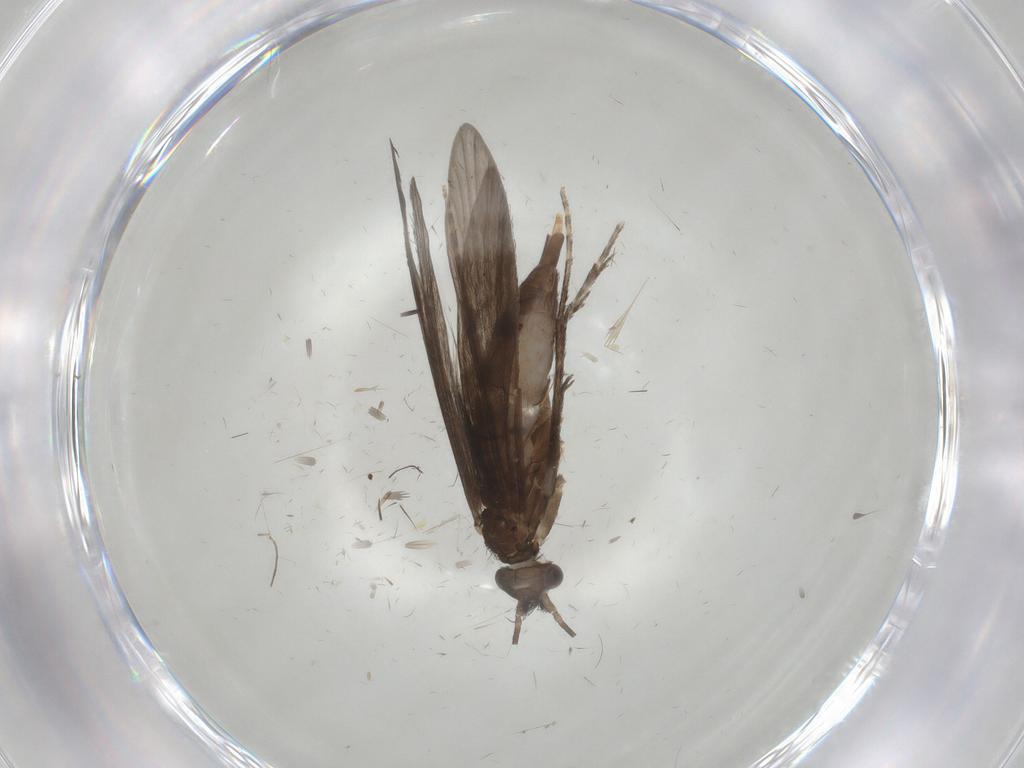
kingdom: Animalia
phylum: Arthropoda
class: Insecta
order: Trichoptera
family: Xiphocentronidae
